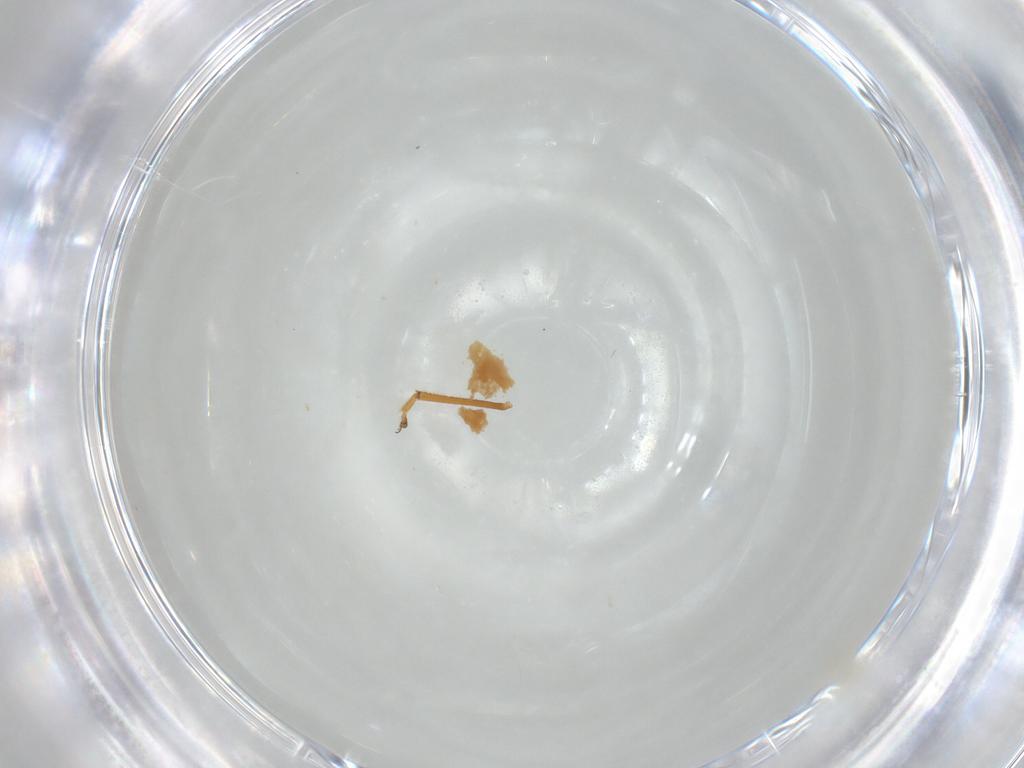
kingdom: Animalia
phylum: Arthropoda
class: Insecta
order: Hemiptera
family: Blissidae
